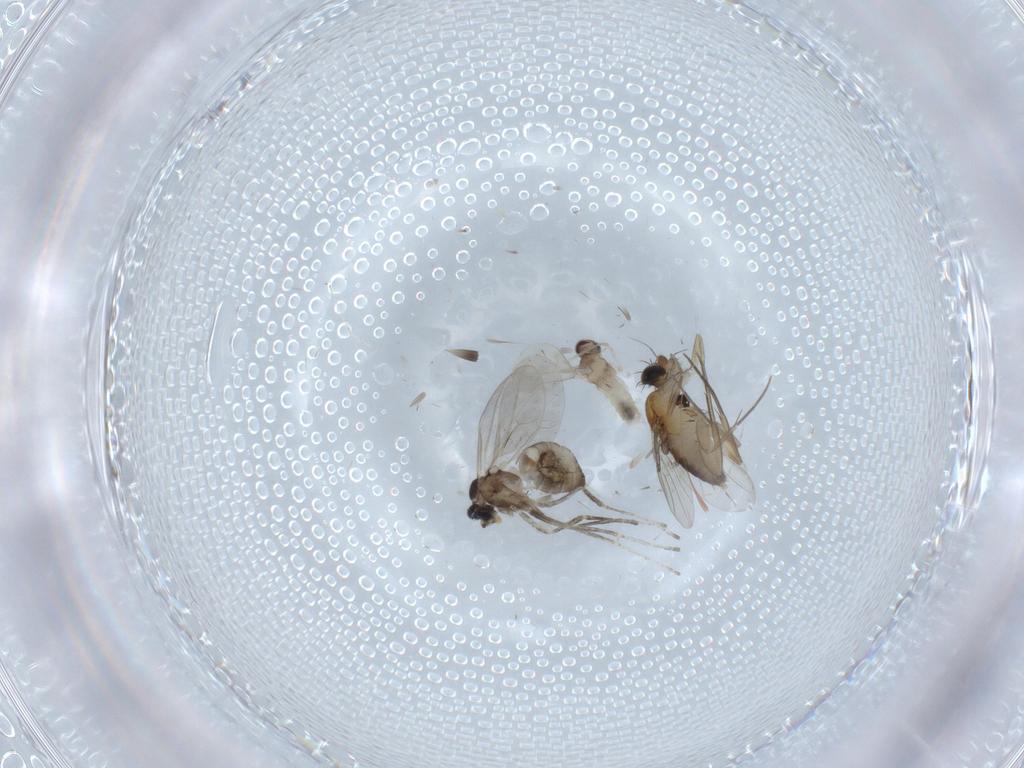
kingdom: Animalia
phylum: Arthropoda
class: Insecta
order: Diptera
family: Phoridae
